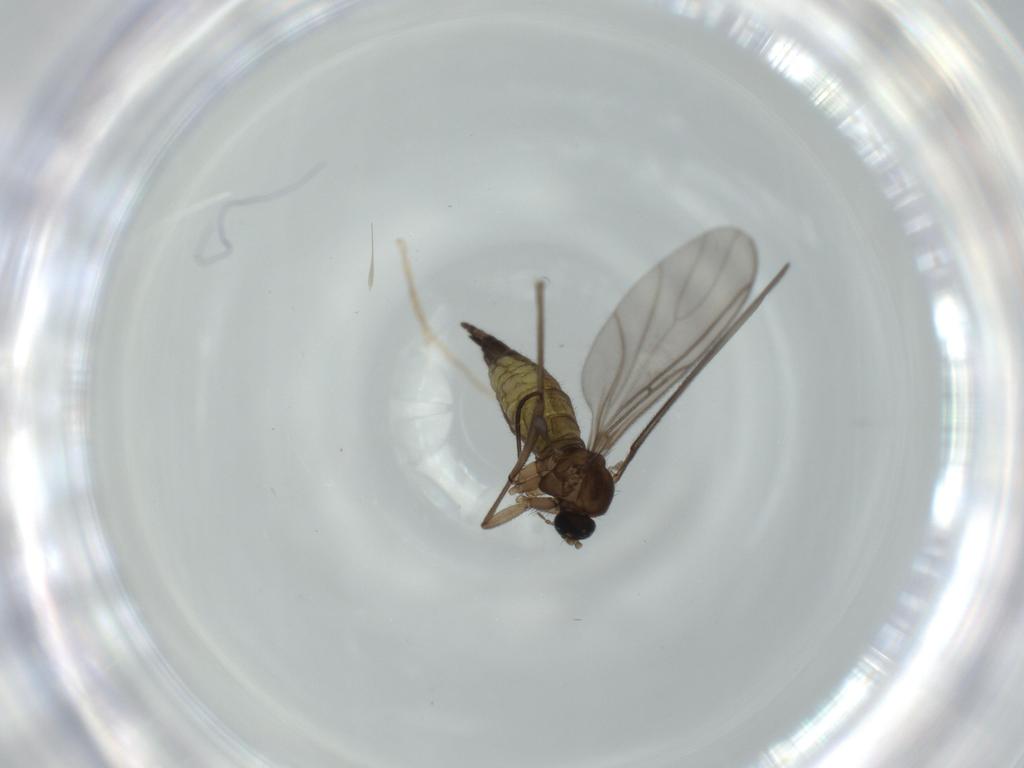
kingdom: Animalia
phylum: Arthropoda
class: Insecta
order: Diptera
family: Sciaridae
